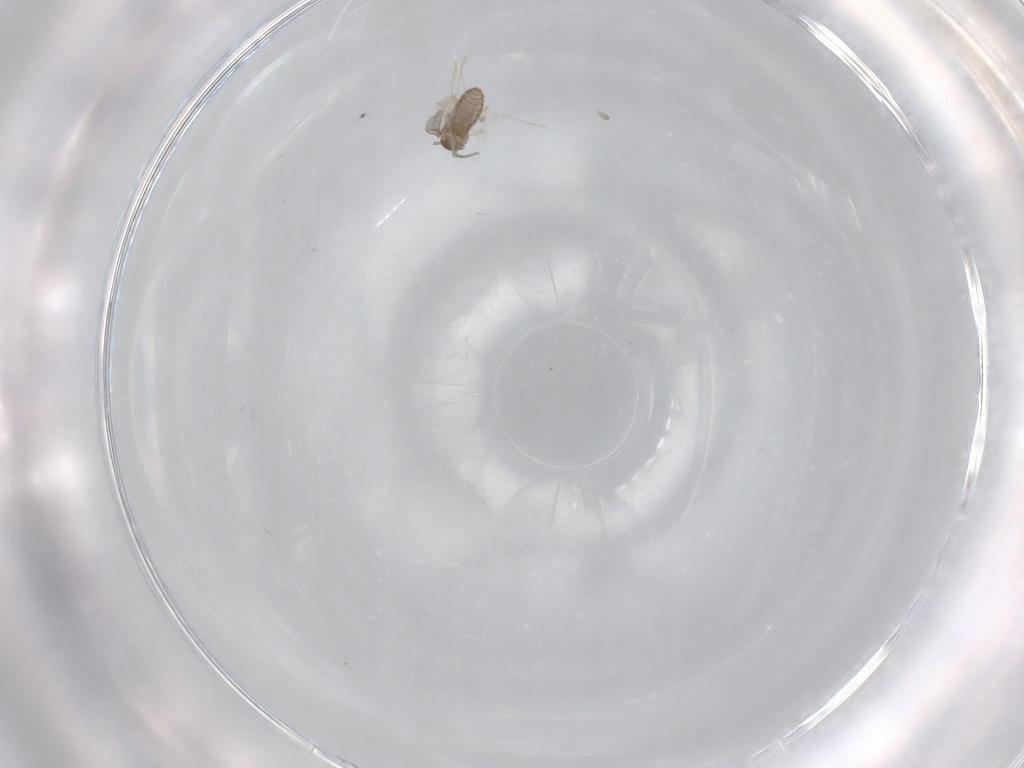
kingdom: Animalia
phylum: Arthropoda
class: Insecta
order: Diptera
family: Cecidomyiidae
